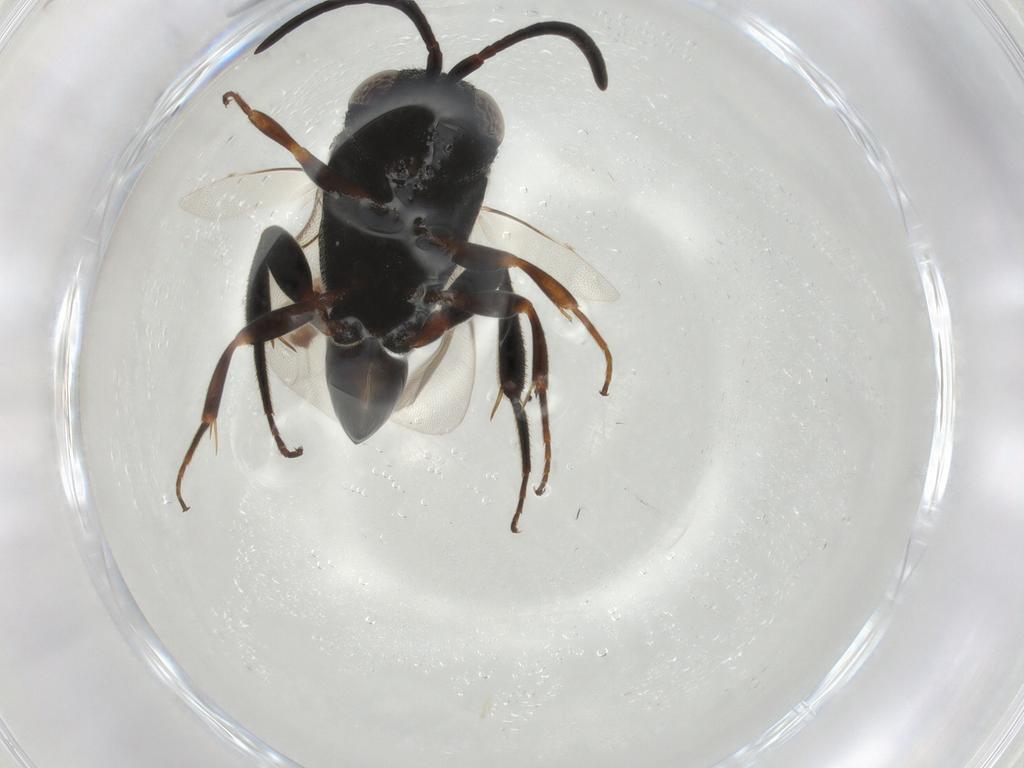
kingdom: Animalia
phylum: Arthropoda
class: Insecta
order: Hymenoptera
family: Evaniidae
